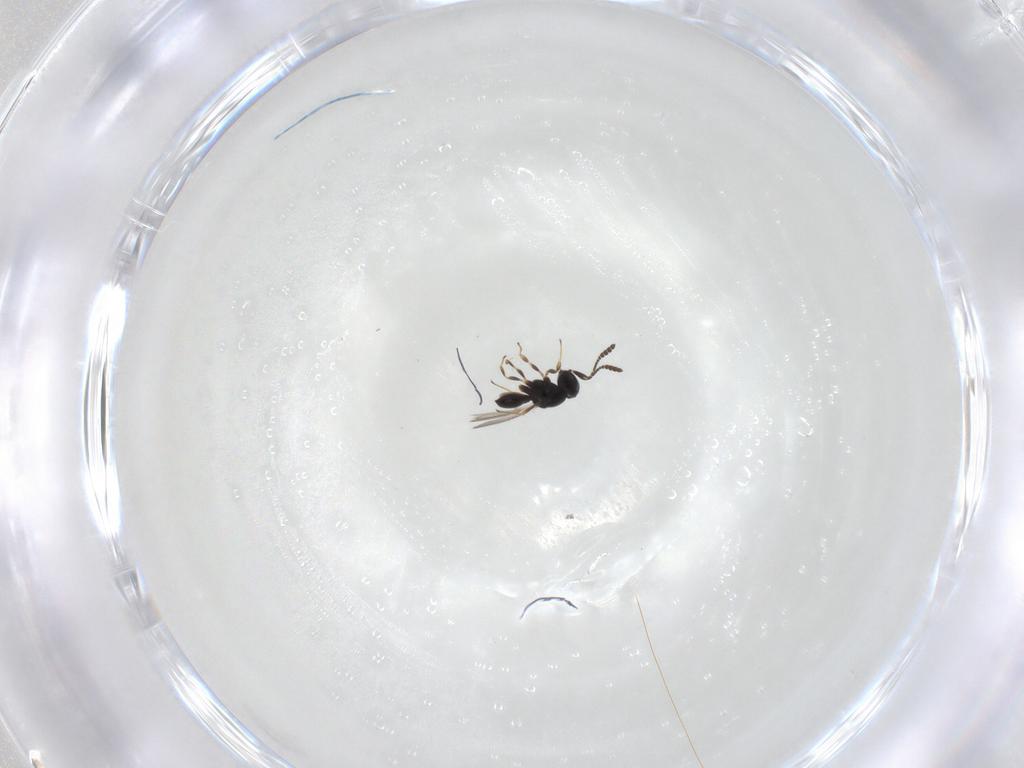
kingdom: Animalia
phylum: Arthropoda
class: Insecta
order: Hymenoptera
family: Scelionidae
